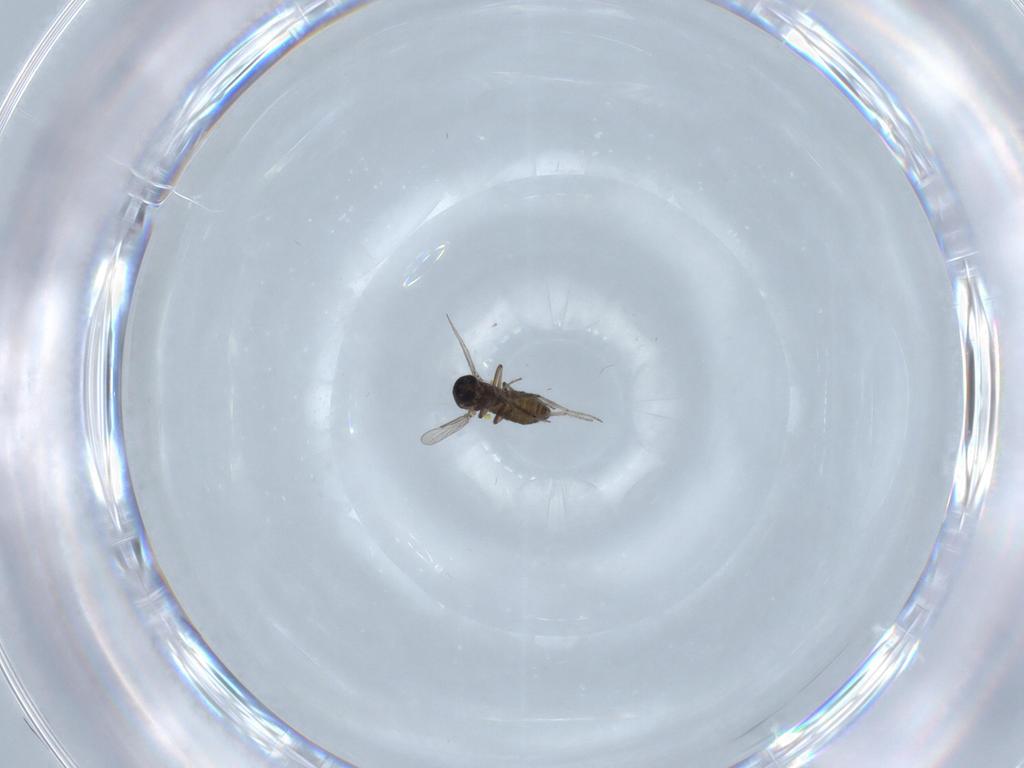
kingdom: Animalia
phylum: Arthropoda
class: Insecta
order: Diptera
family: Ceratopogonidae
